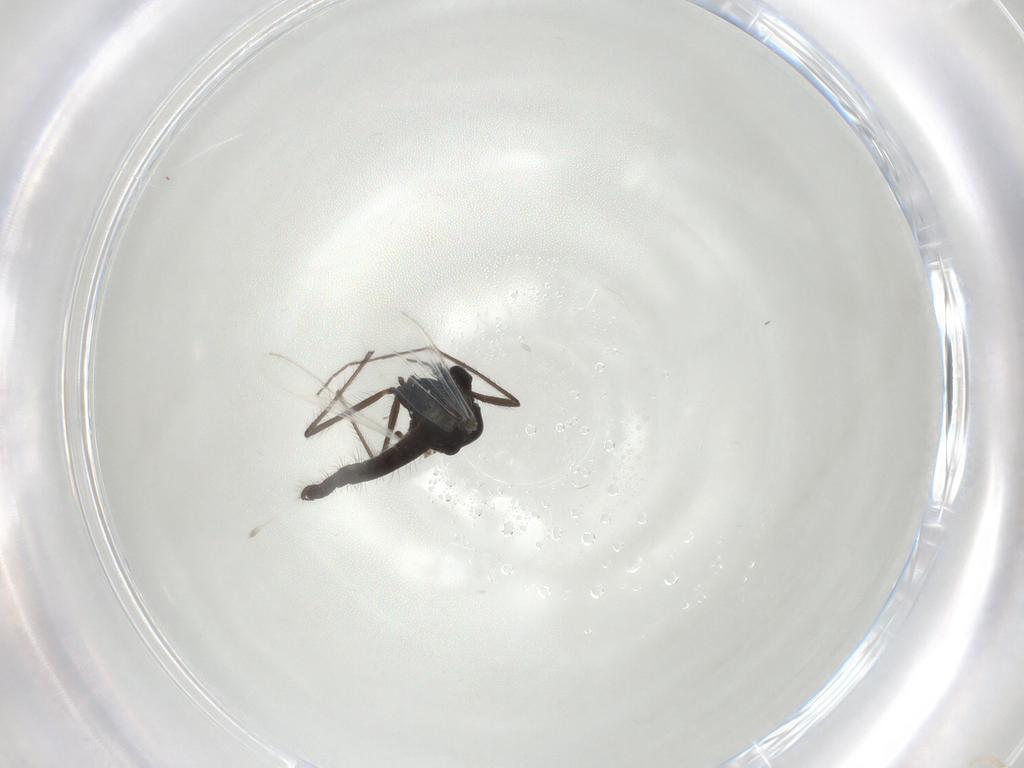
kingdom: Animalia
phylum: Arthropoda
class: Insecta
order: Diptera
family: Chironomidae
